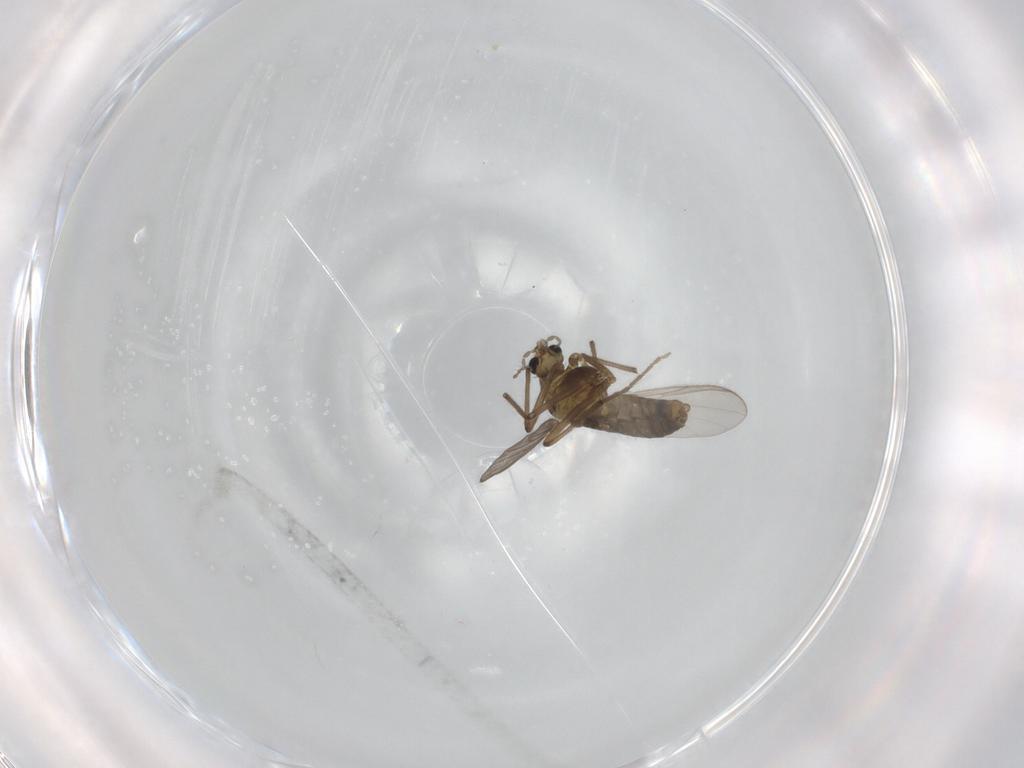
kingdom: Animalia
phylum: Arthropoda
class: Insecta
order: Diptera
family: Chironomidae
